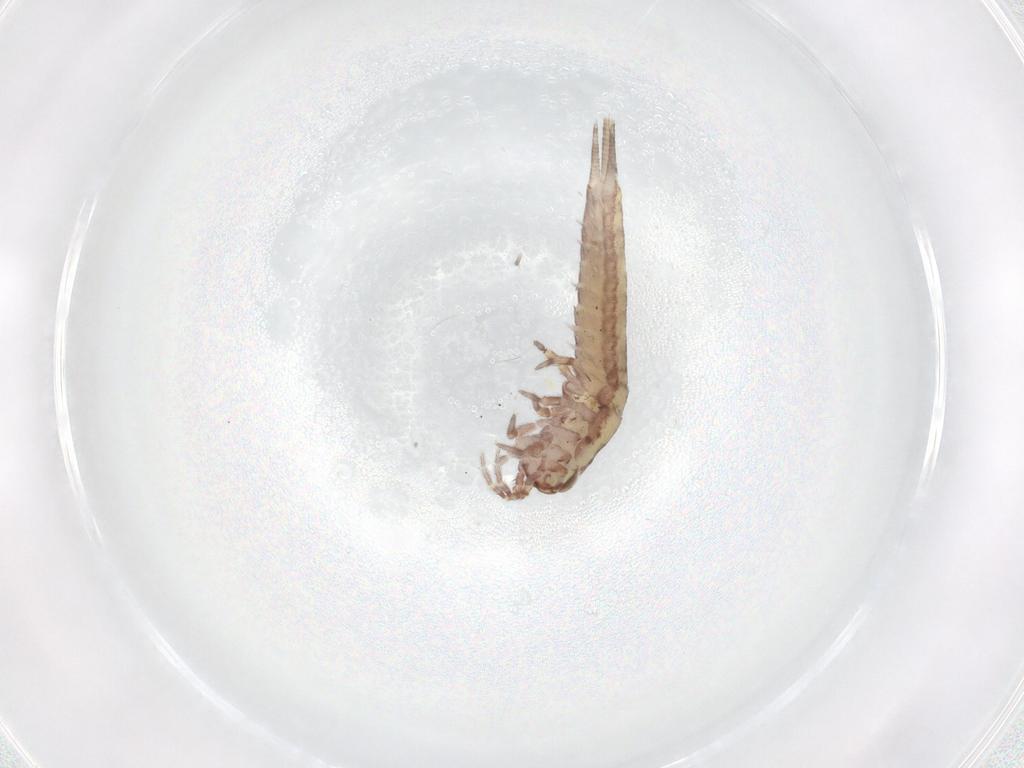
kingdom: Animalia
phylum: Arthropoda
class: Insecta
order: Archaeognatha
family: Machilidae
